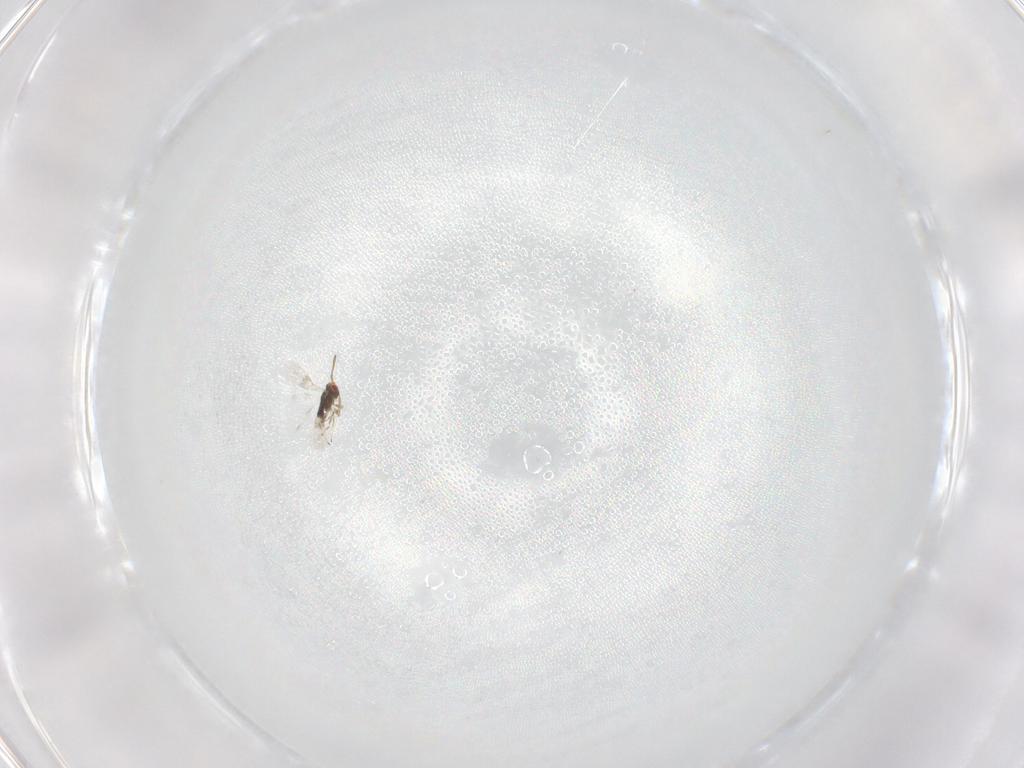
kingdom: Animalia
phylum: Arthropoda
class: Insecta
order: Hymenoptera
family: Azotidae
